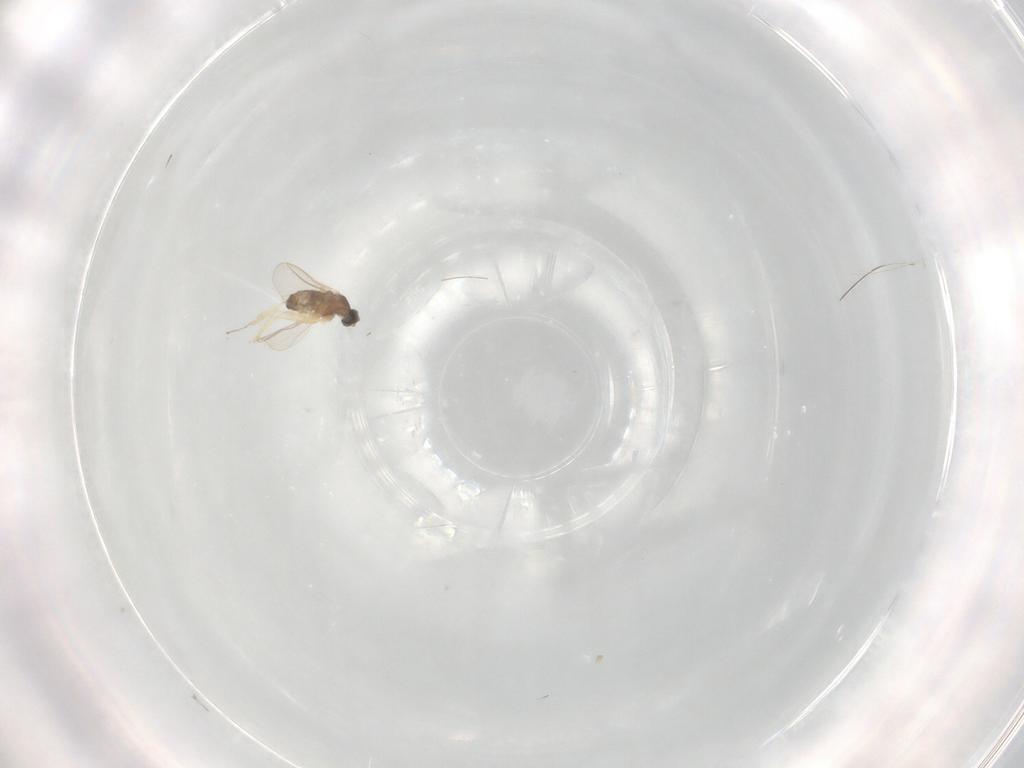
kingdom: Animalia
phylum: Arthropoda
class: Insecta
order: Diptera
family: Cecidomyiidae
